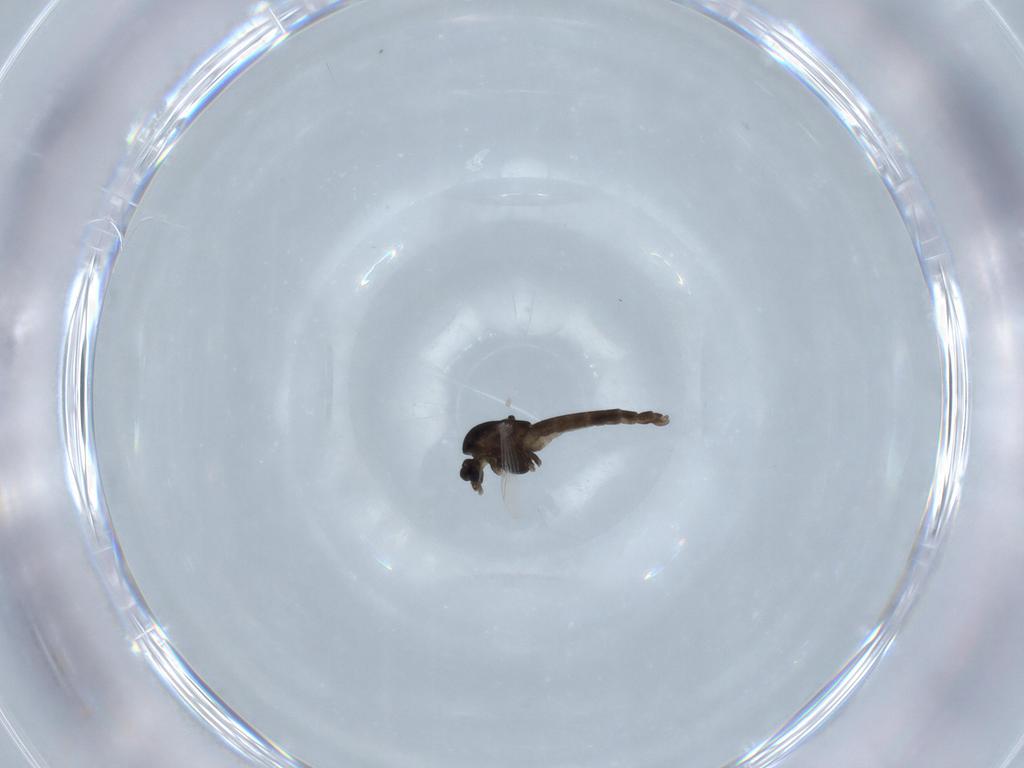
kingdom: Animalia
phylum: Arthropoda
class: Insecta
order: Diptera
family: Chironomidae
